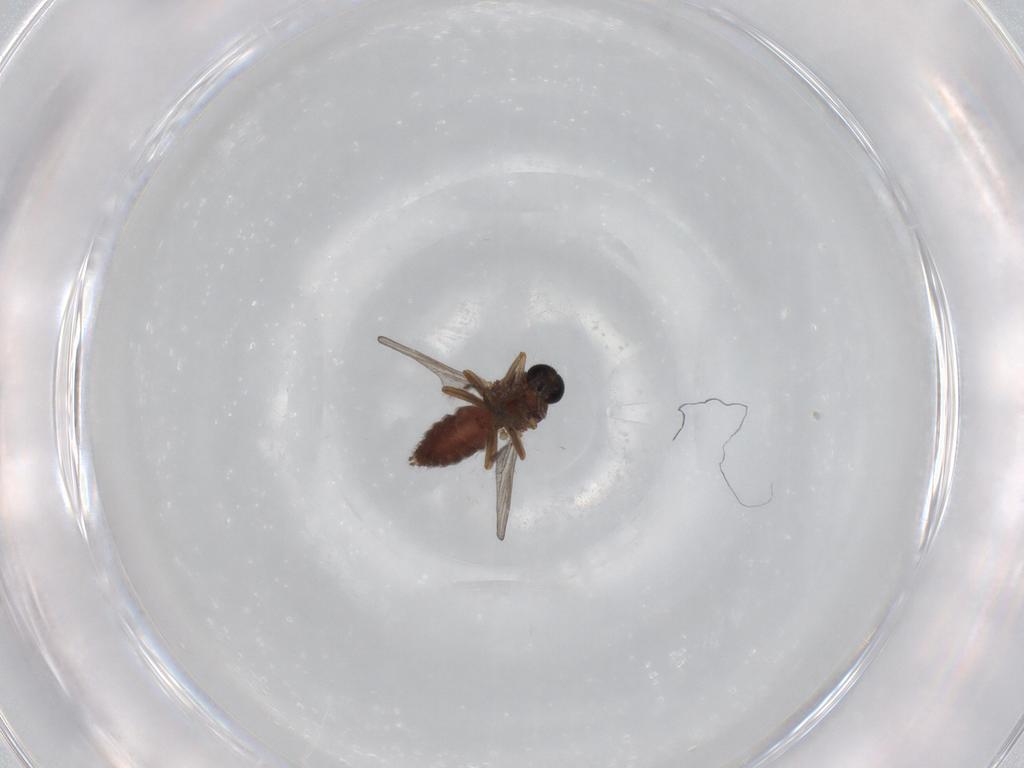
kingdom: Animalia
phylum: Arthropoda
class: Insecta
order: Diptera
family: Ceratopogonidae
